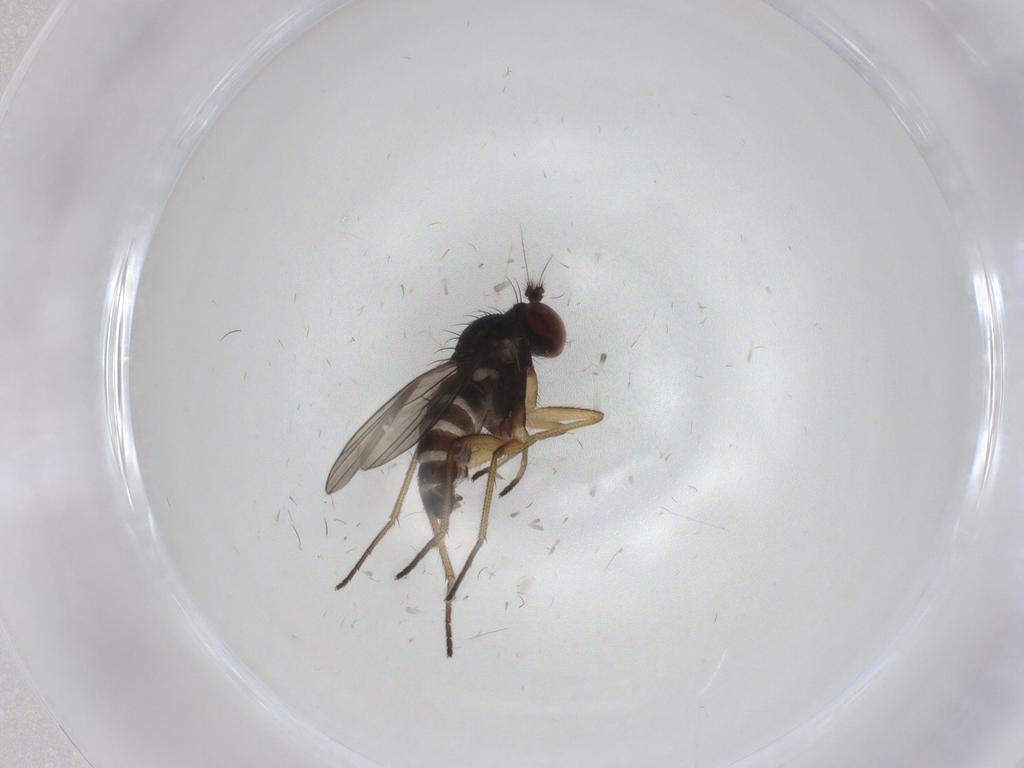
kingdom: Animalia
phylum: Arthropoda
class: Insecta
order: Diptera
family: Dolichopodidae
